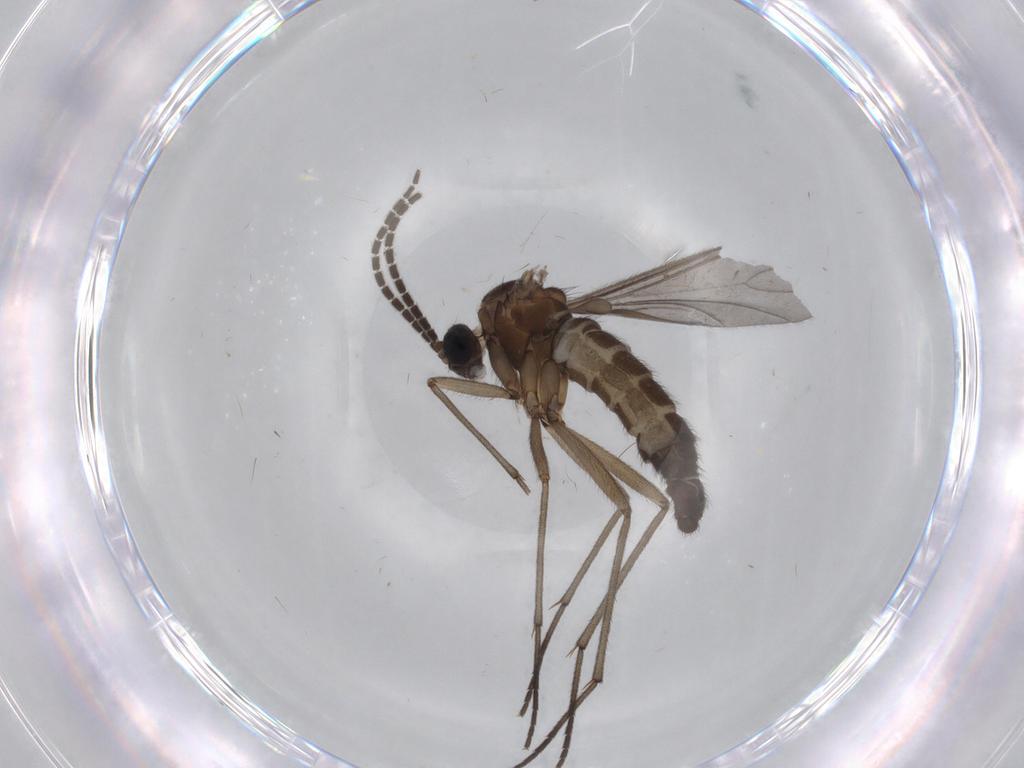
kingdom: Animalia
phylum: Arthropoda
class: Insecta
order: Diptera
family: Sciaridae
